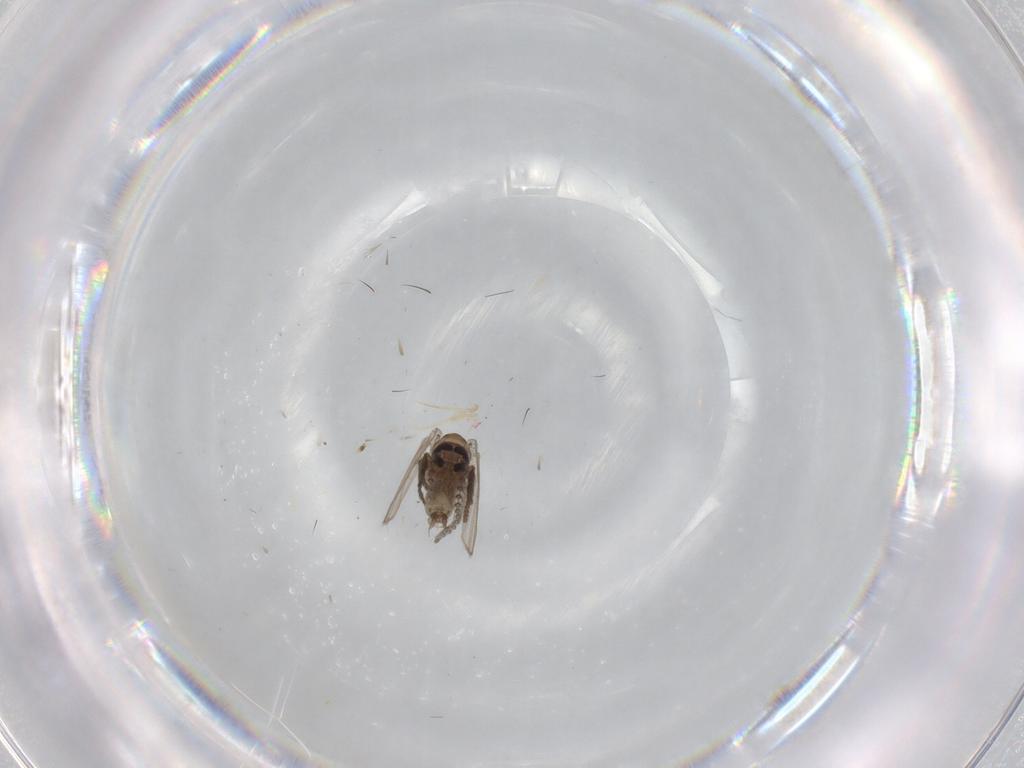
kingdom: Animalia
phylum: Arthropoda
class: Insecta
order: Diptera
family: Psychodidae
